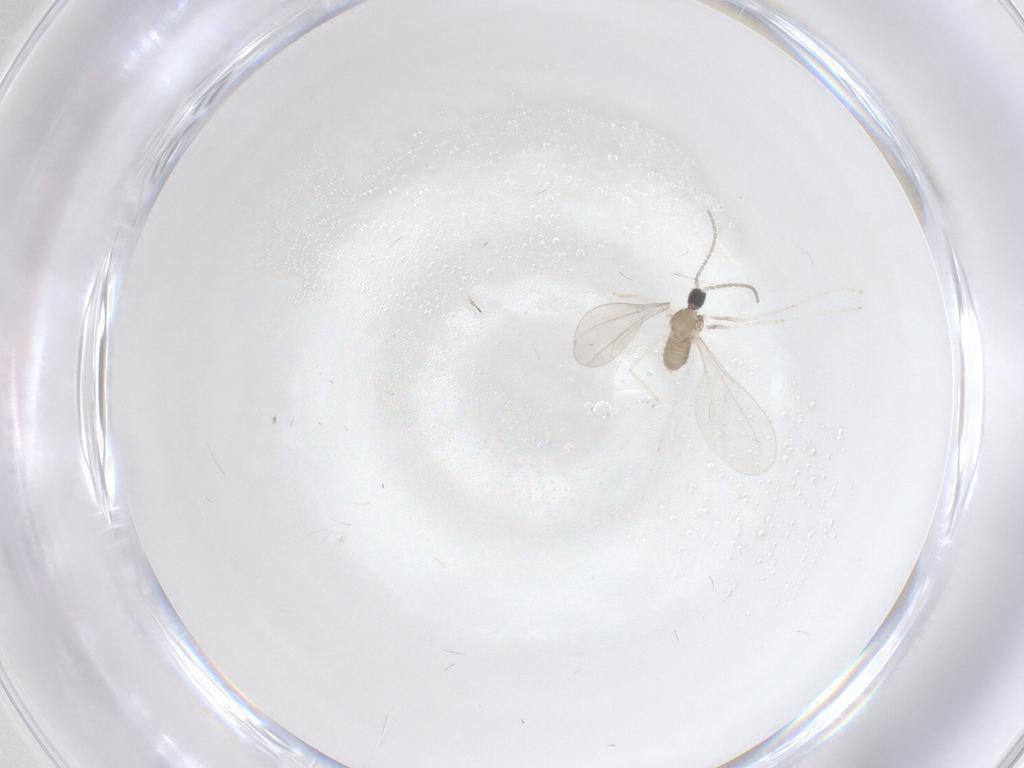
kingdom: Animalia
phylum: Arthropoda
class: Insecta
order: Diptera
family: Cecidomyiidae
